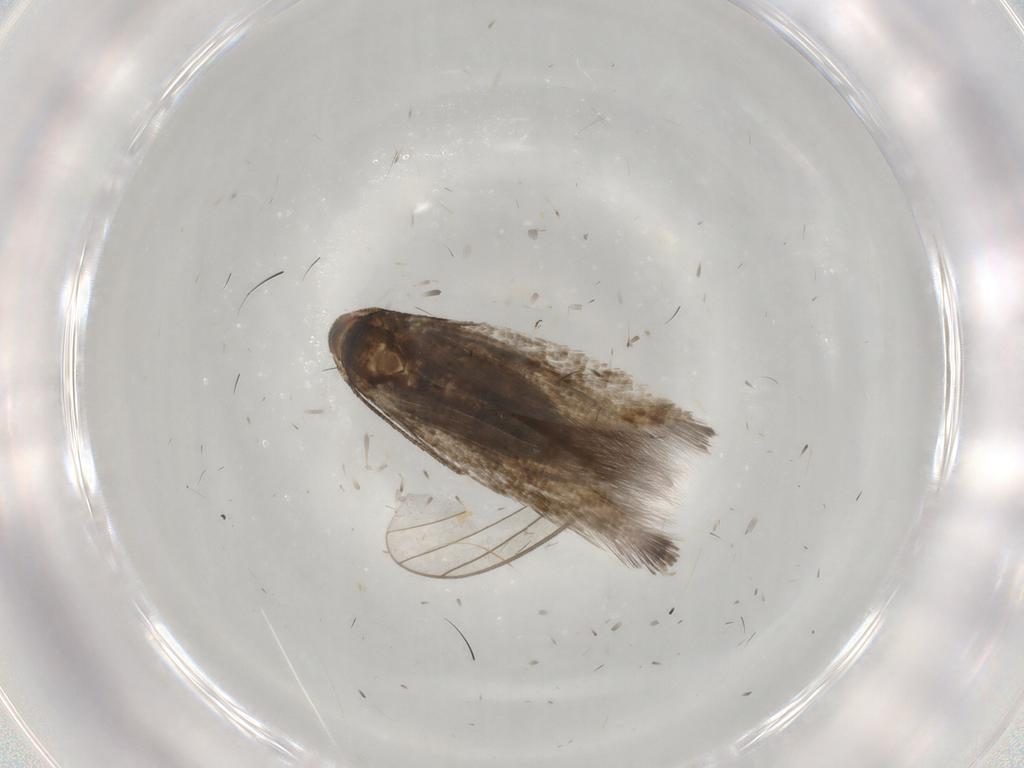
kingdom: Animalia
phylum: Arthropoda
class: Insecta
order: Lepidoptera
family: Momphidae
